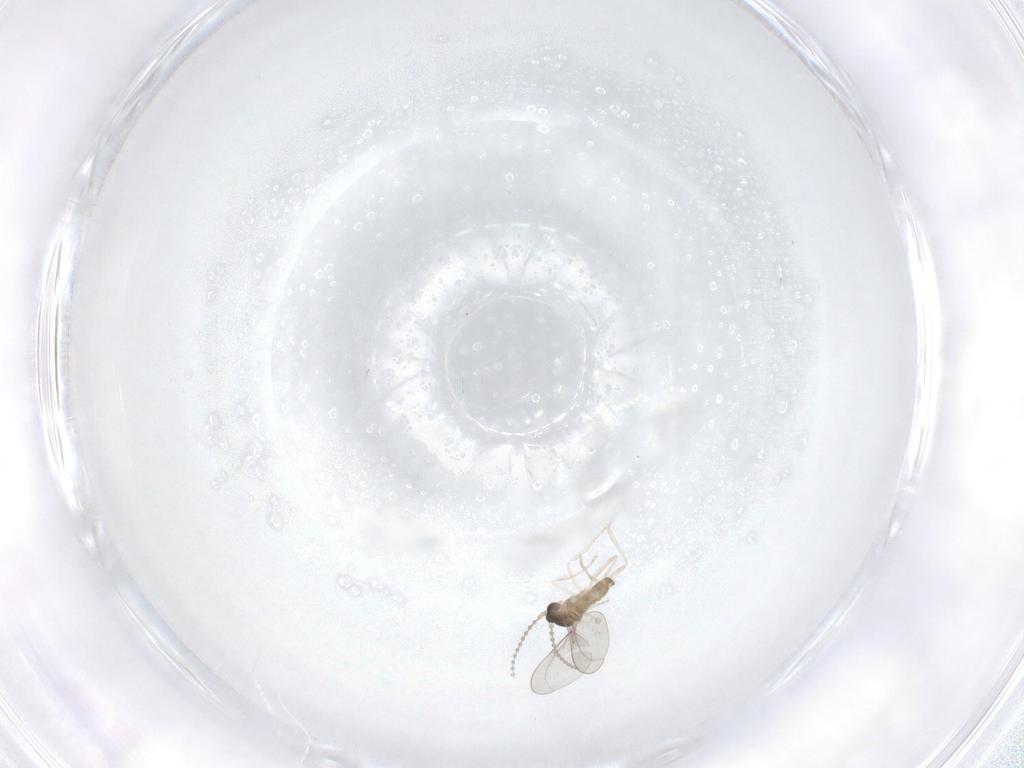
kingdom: Animalia
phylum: Arthropoda
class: Insecta
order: Diptera
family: Cecidomyiidae
